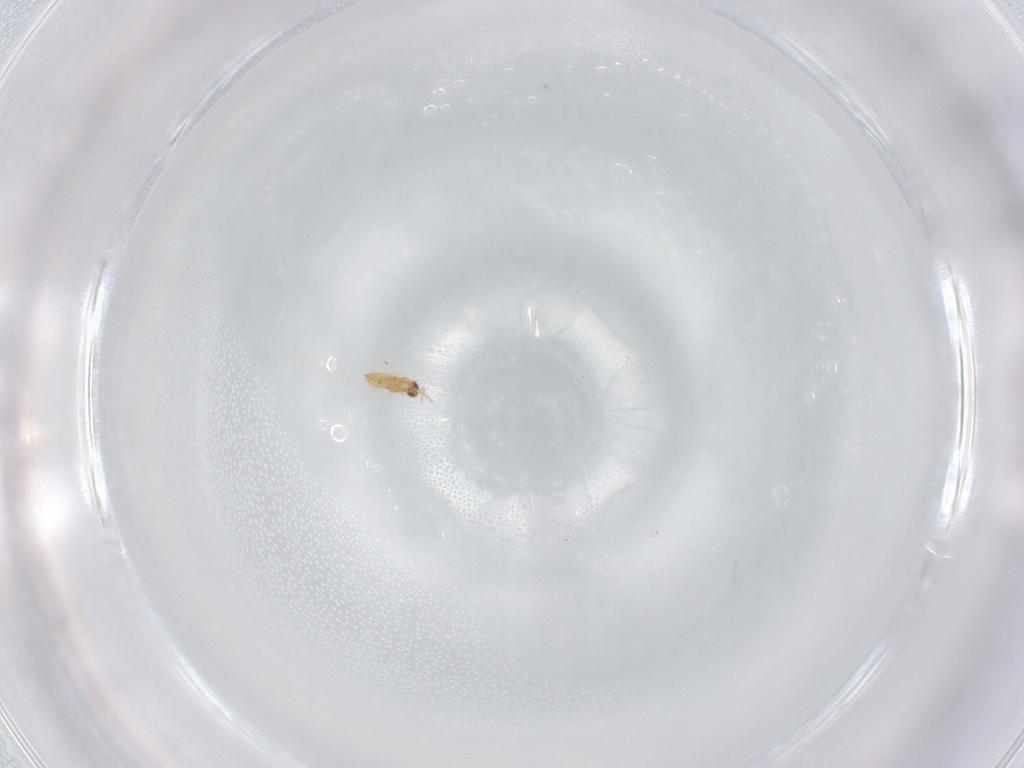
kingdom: Animalia
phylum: Arthropoda
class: Insecta
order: Hymenoptera
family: Trichogrammatidae
